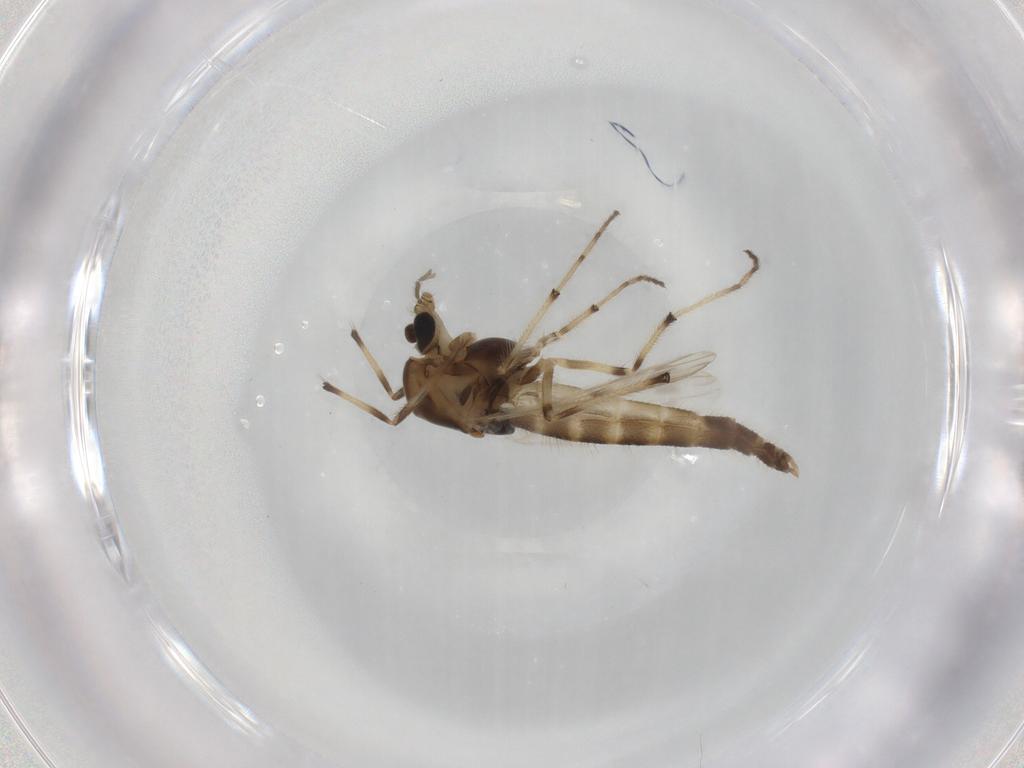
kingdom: Animalia
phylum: Arthropoda
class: Insecta
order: Diptera
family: Chironomidae
